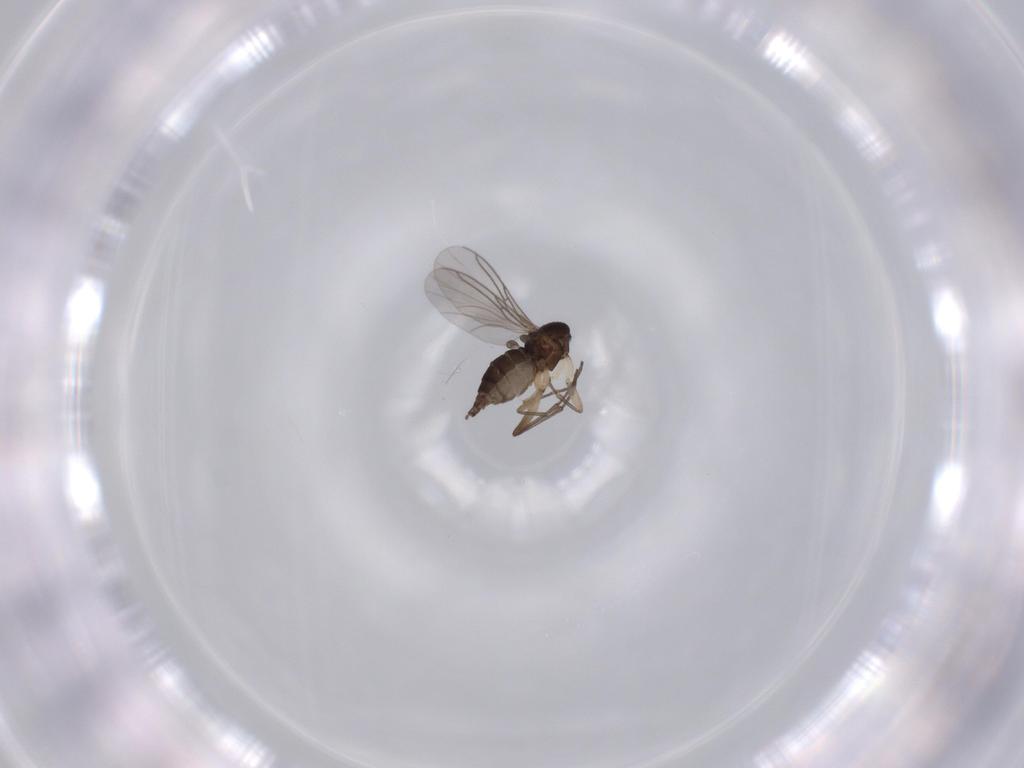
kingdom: Animalia
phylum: Arthropoda
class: Insecta
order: Diptera
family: Sciaridae
